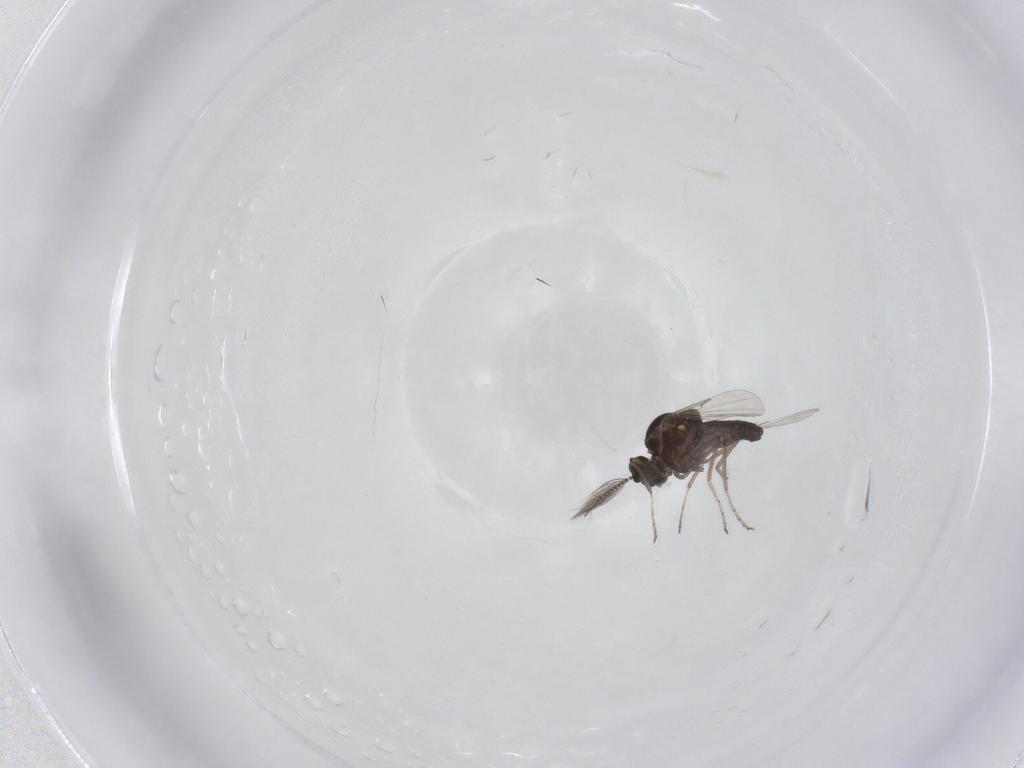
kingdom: Animalia
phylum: Arthropoda
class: Insecta
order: Diptera
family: Ceratopogonidae
